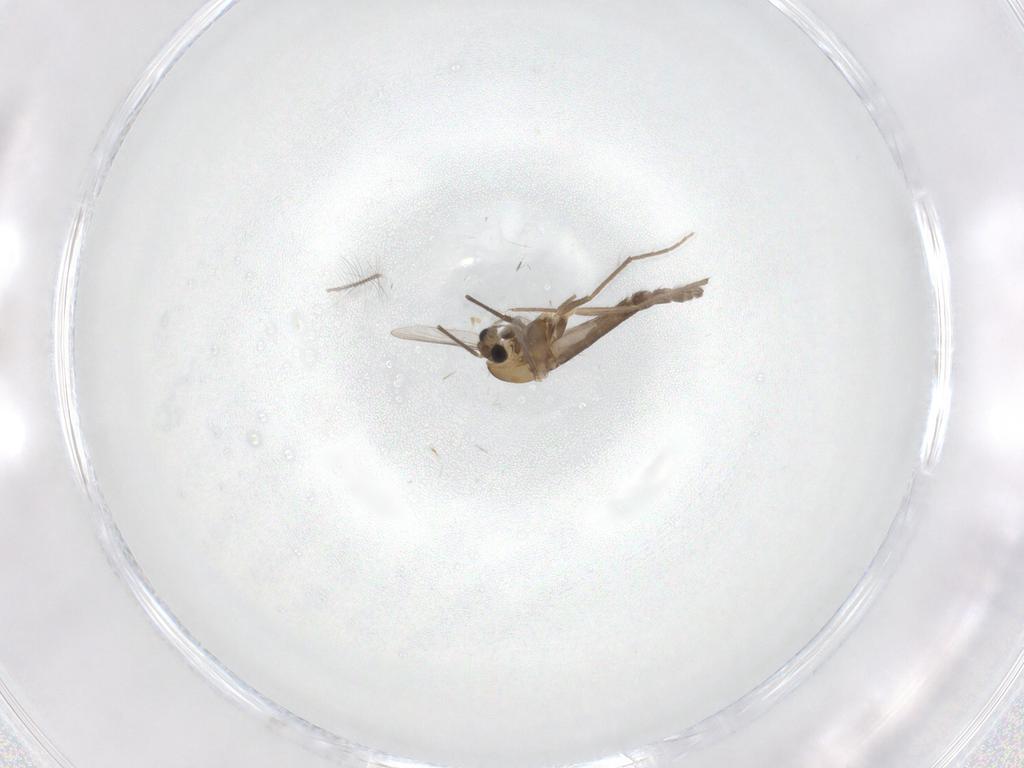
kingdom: Animalia
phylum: Arthropoda
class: Insecta
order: Diptera
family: Chironomidae
